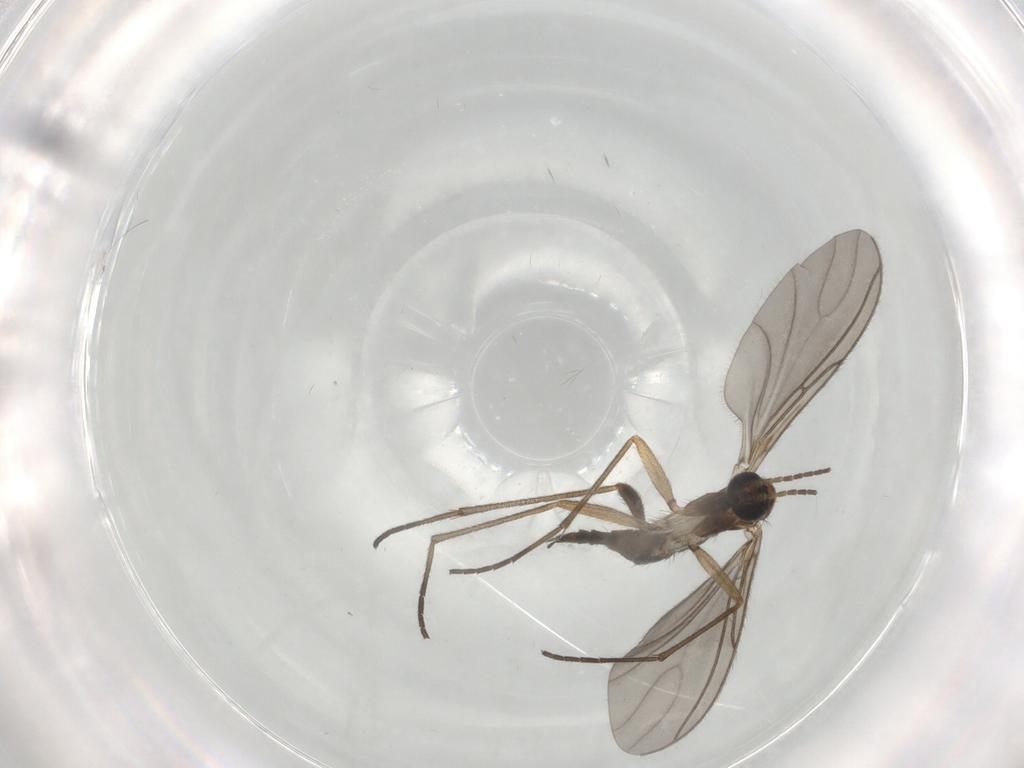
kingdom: Animalia
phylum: Arthropoda
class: Insecta
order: Diptera
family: Sciaridae
